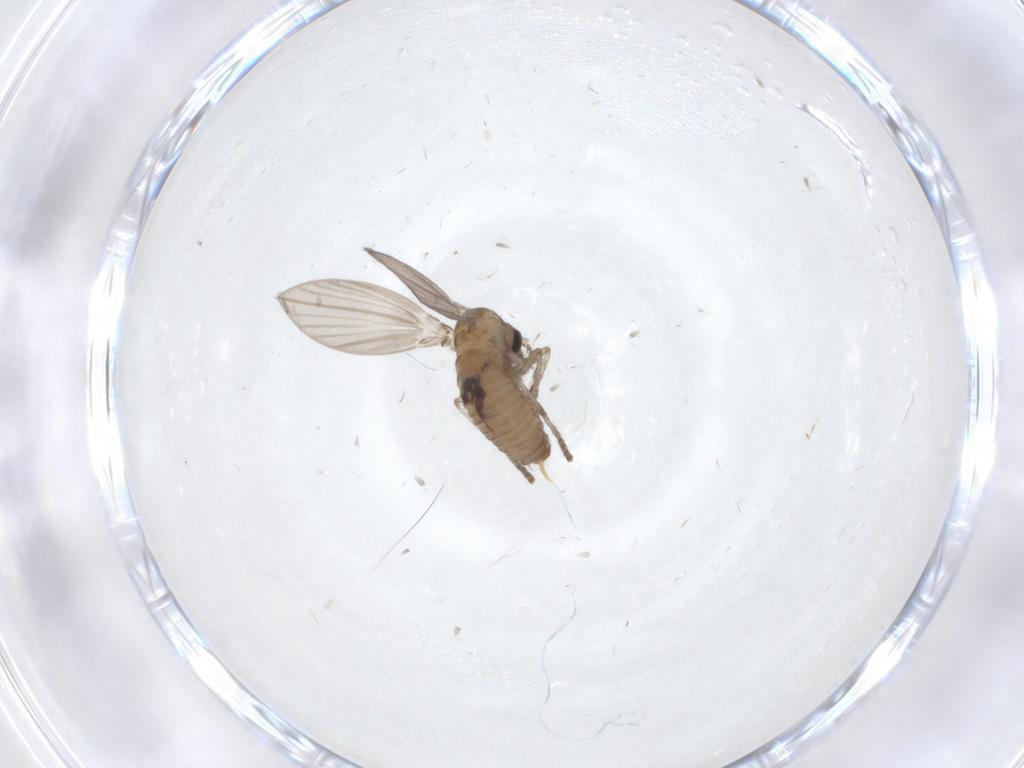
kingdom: Animalia
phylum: Arthropoda
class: Insecta
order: Diptera
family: Psychodidae
